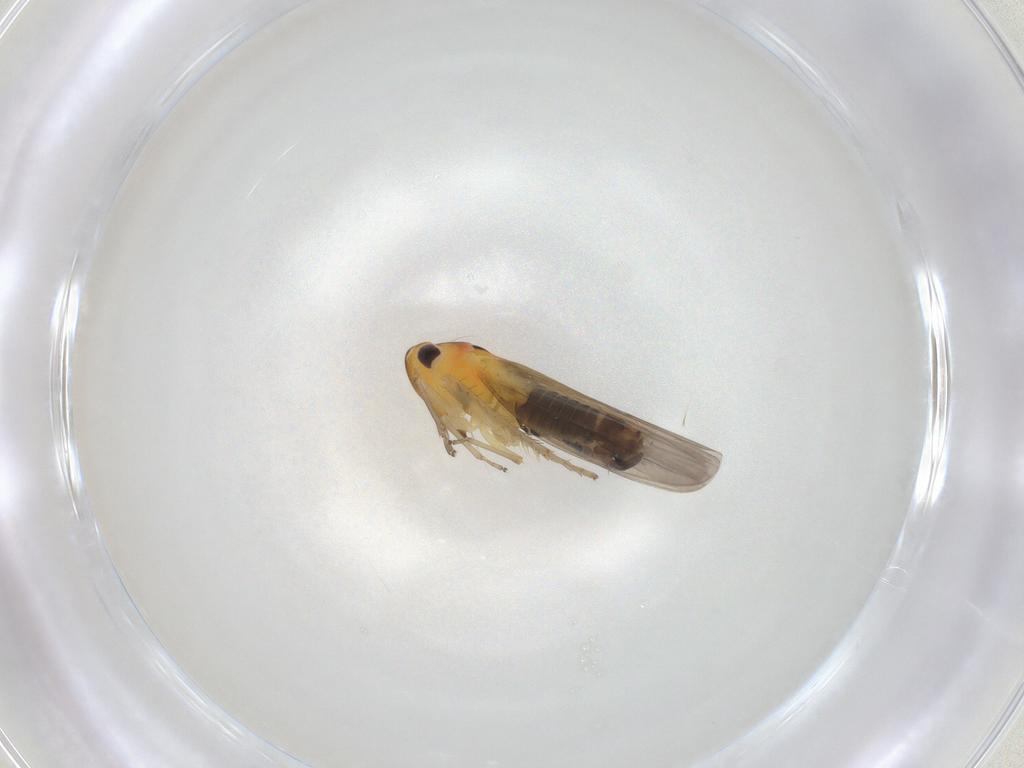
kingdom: Animalia
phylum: Arthropoda
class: Insecta
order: Hemiptera
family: Cicadellidae
